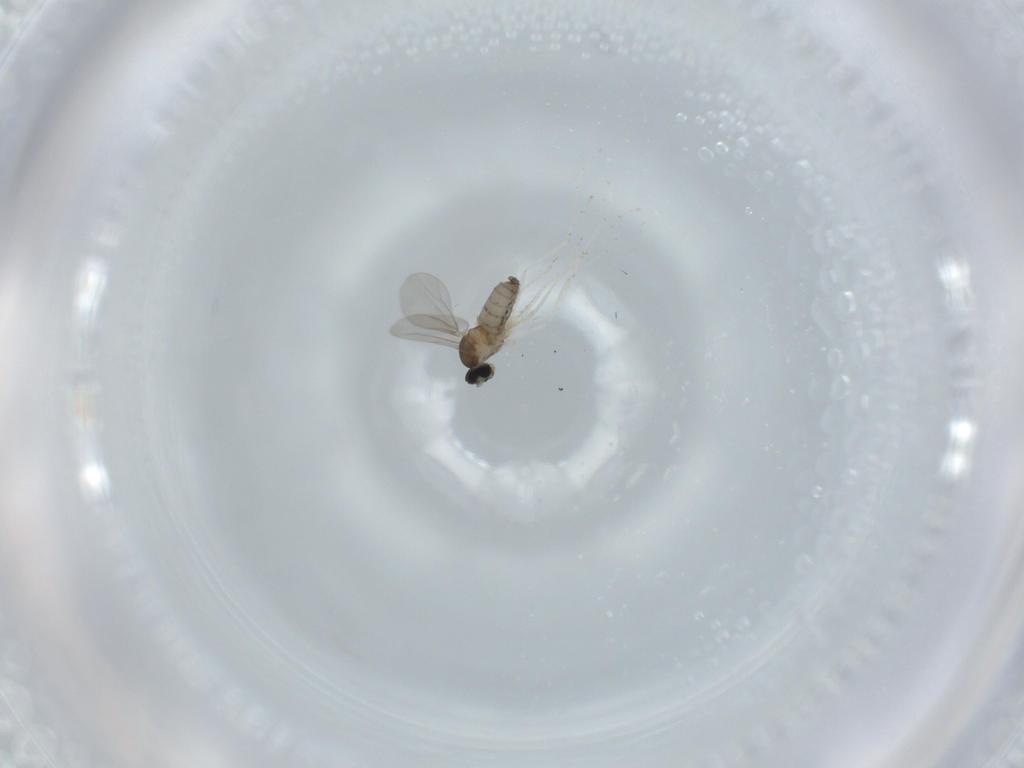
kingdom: Animalia
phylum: Arthropoda
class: Insecta
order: Diptera
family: Milichiidae
